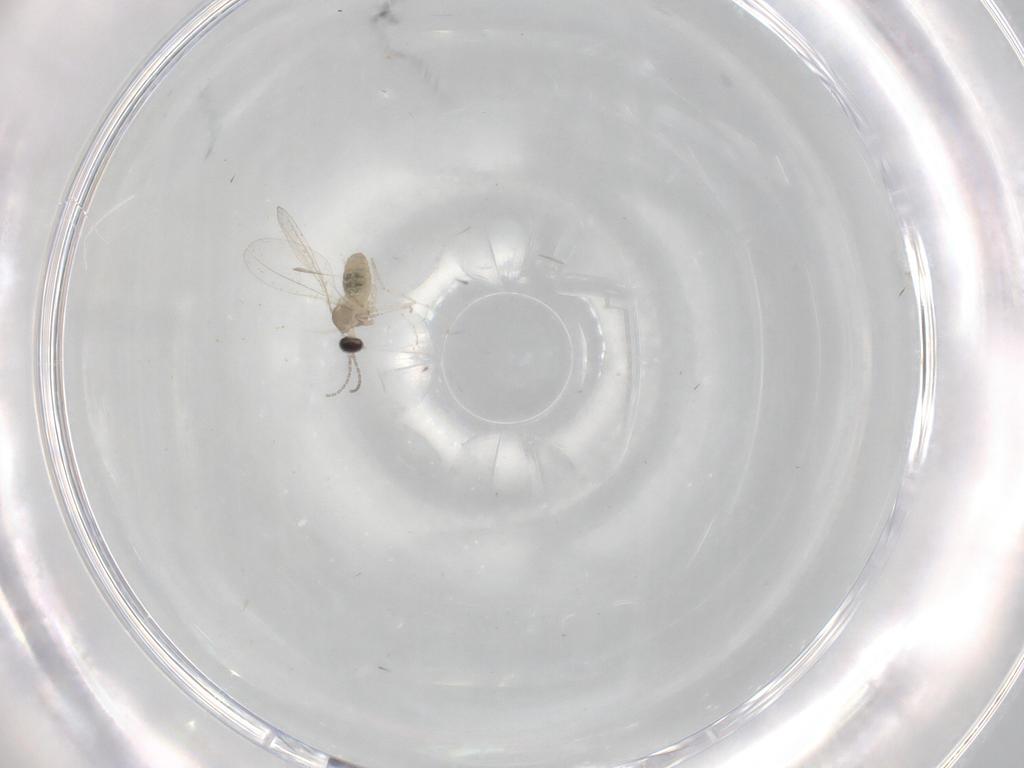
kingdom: Animalia
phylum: Arthropoda
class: Insecta
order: Diptera
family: Cecidomyiidae
